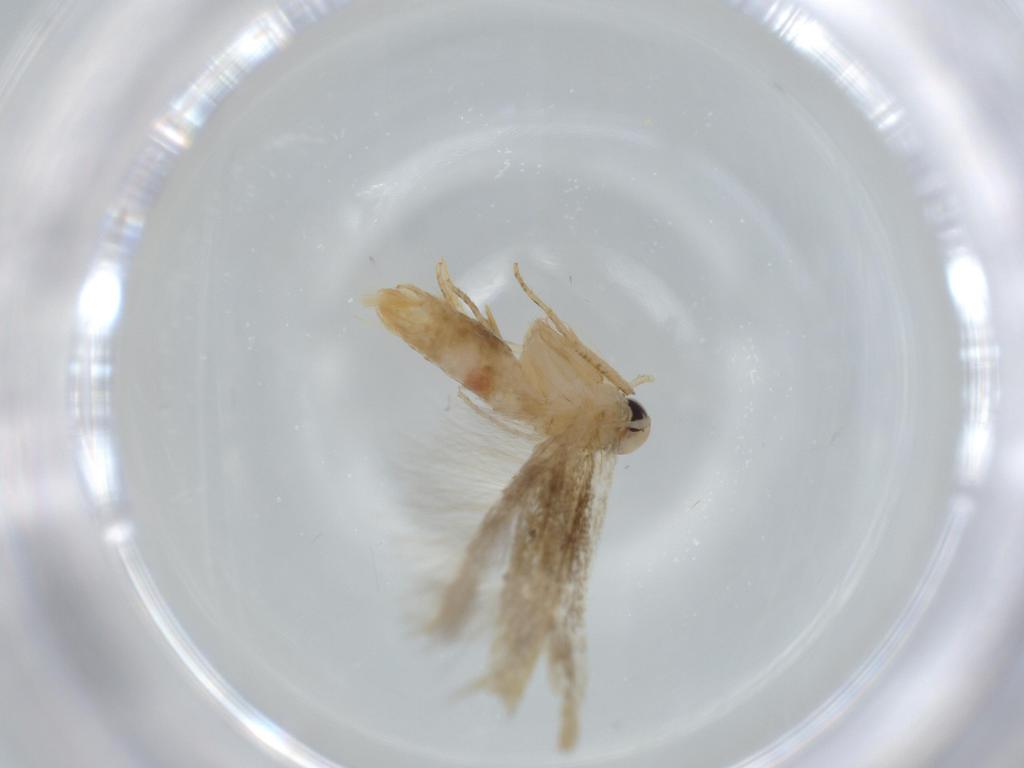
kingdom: Animalia
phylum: Arthropoda
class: Insecta
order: Lepidoptera
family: Cosmopterigidae
